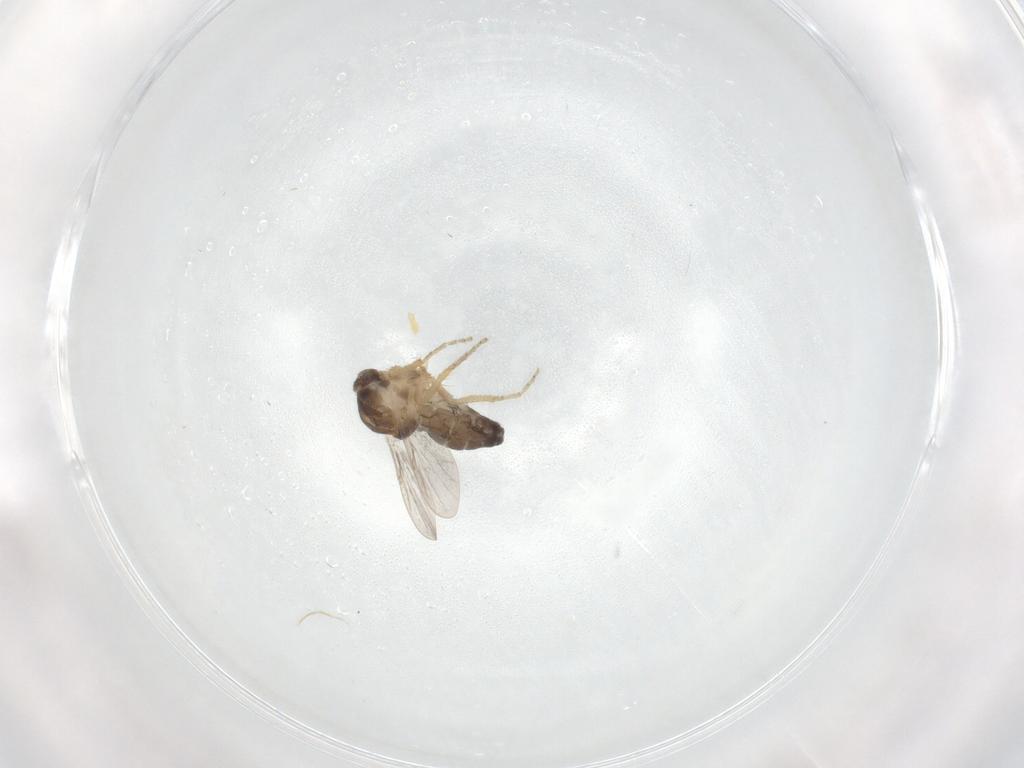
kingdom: Animalia
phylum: Arthropoda
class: Insecta
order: Diptera
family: Ceratopogonidae
